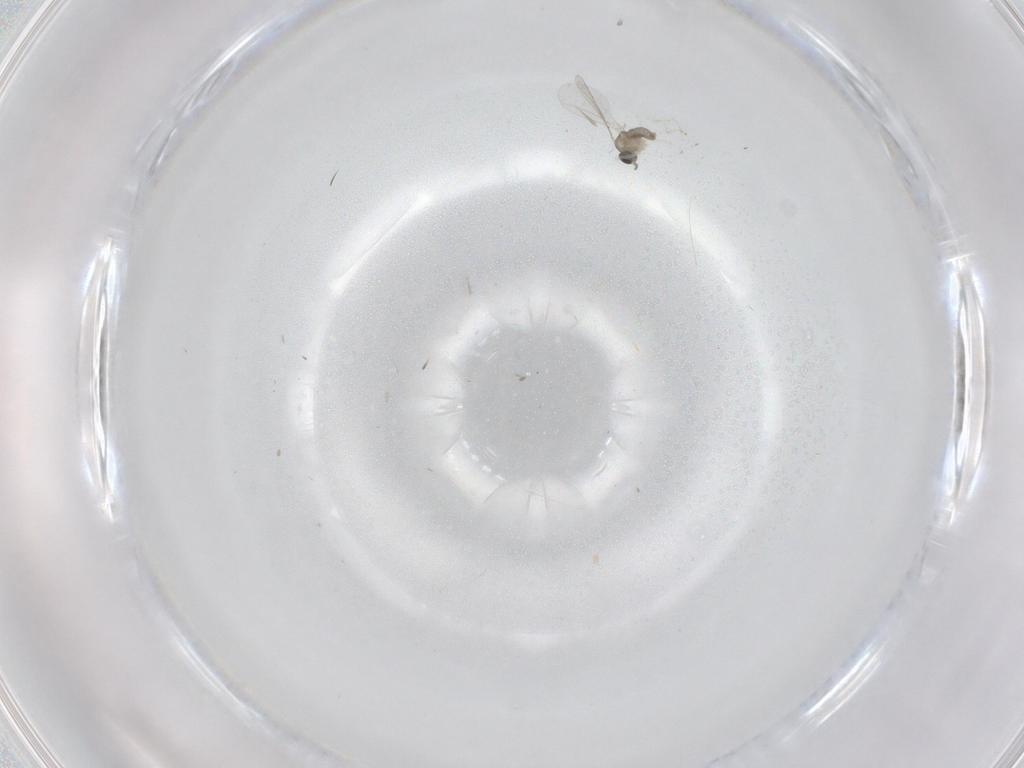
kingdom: Animalia
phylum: Arthropoda
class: Insecta
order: Diptera
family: Cecidomyiidae
